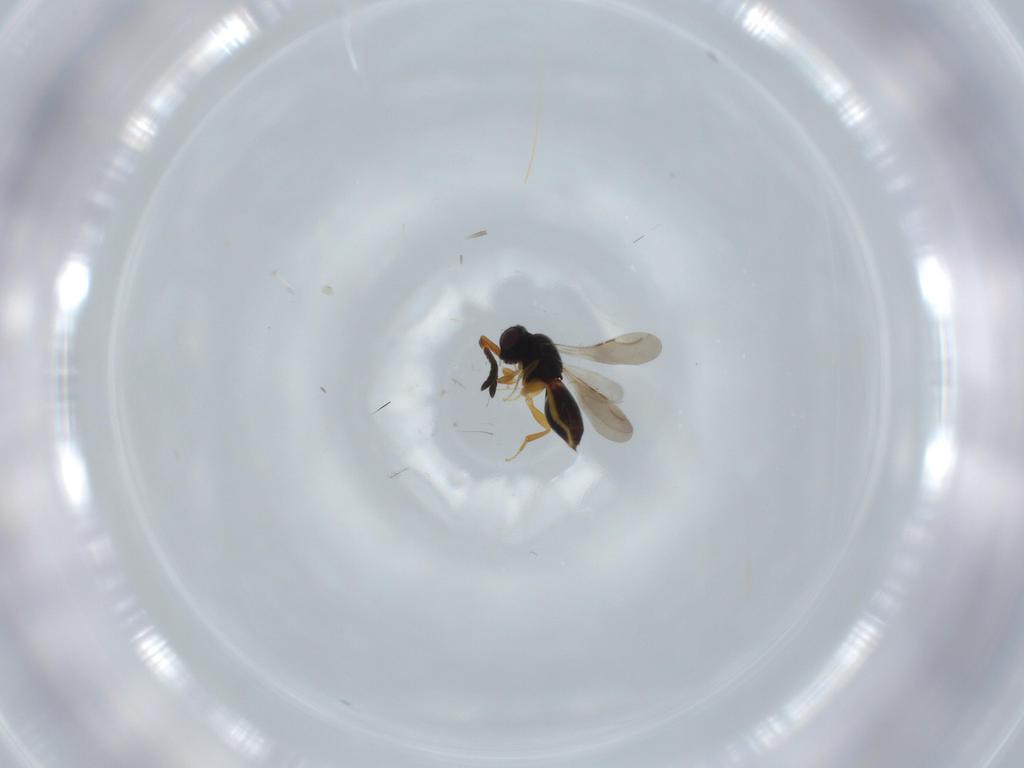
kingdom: Animalia
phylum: Arthropoda
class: Insecta
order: Hymenoptera
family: Ceraphronidae
